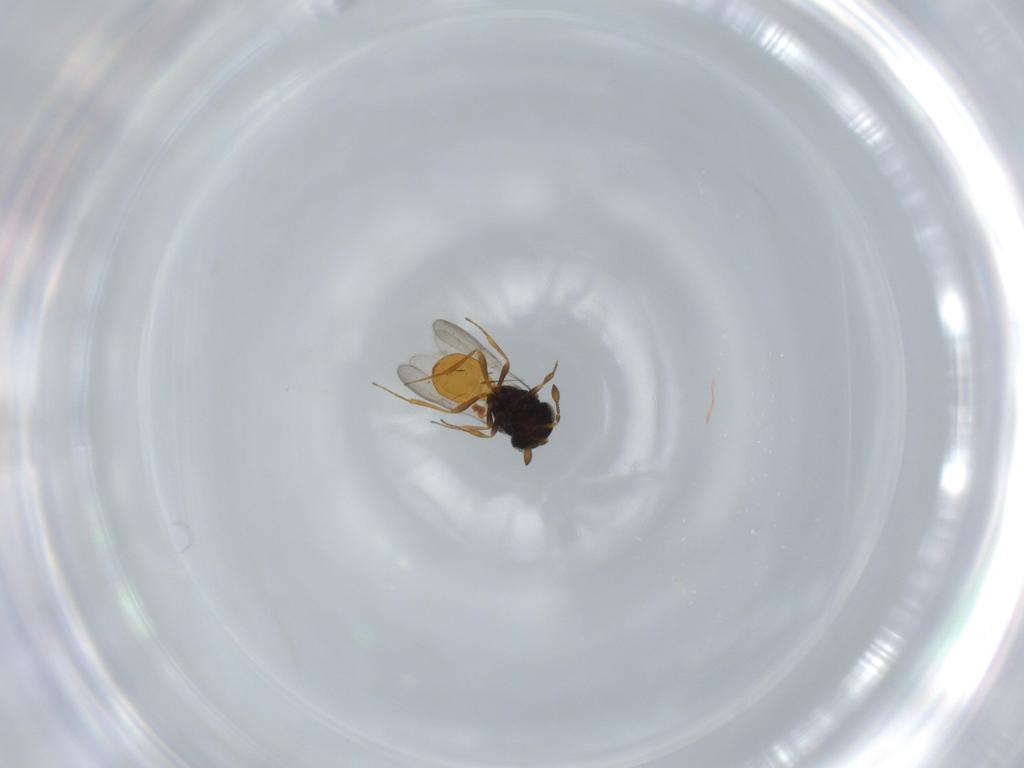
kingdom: Animalia
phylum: Arthropoda
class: Insecta
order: Hymenoptera
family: Scelionidae
